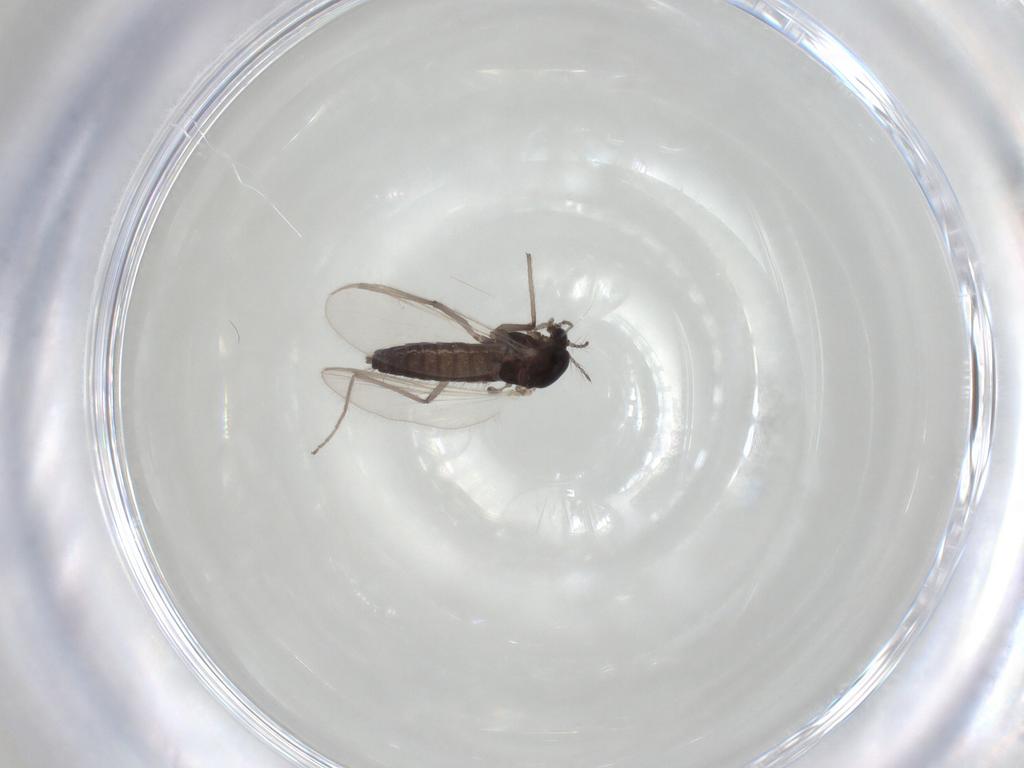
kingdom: Animalia
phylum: Arthropoda
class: Insecta
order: Diptera
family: Chironomidae
